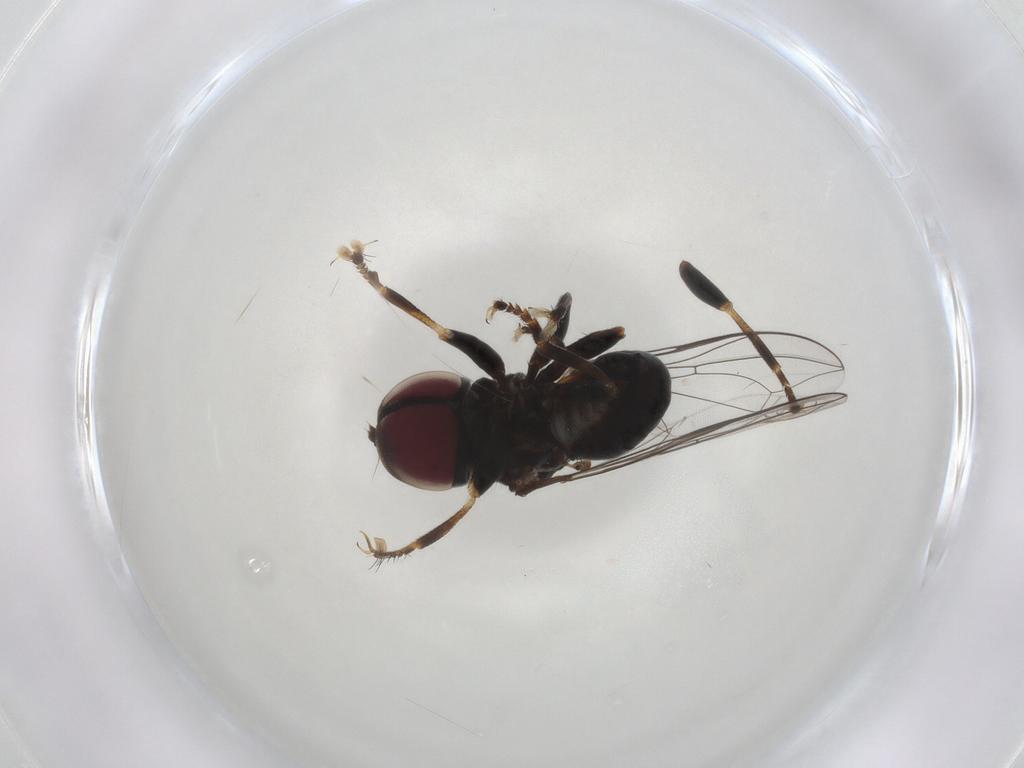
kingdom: Animalia
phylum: Arthropoda
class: Insecta
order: Diptera
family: Pipunculidae
